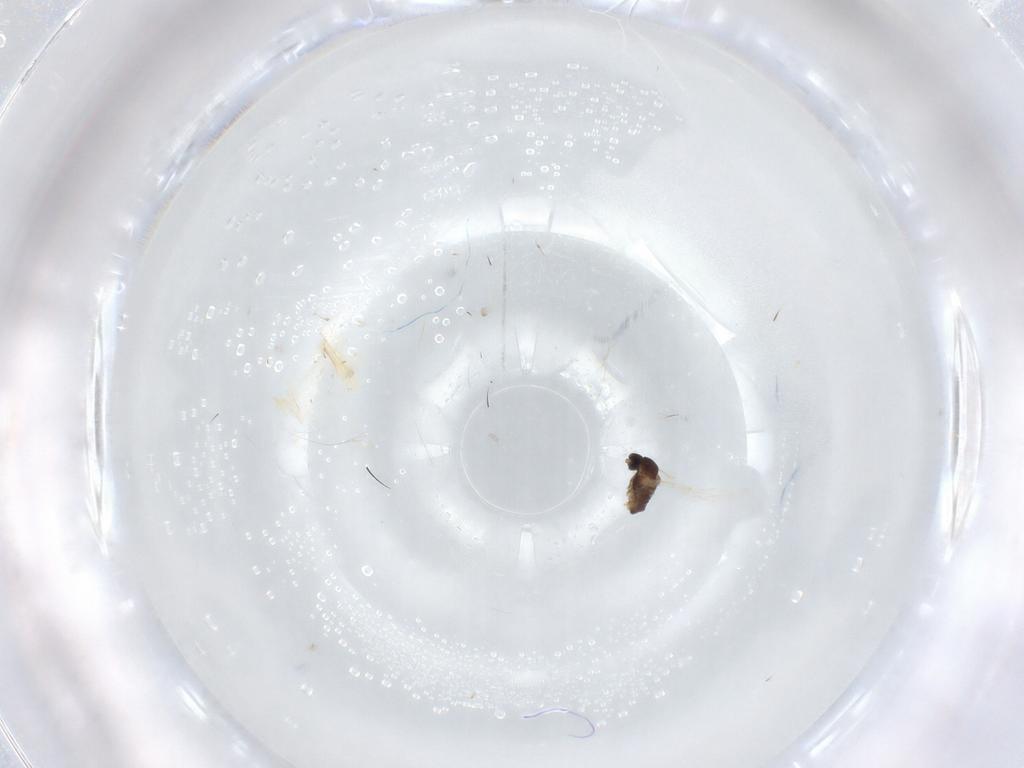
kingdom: Animalia
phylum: Arthropoda
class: Insecta
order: Diptera
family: Cecidomyiidae
